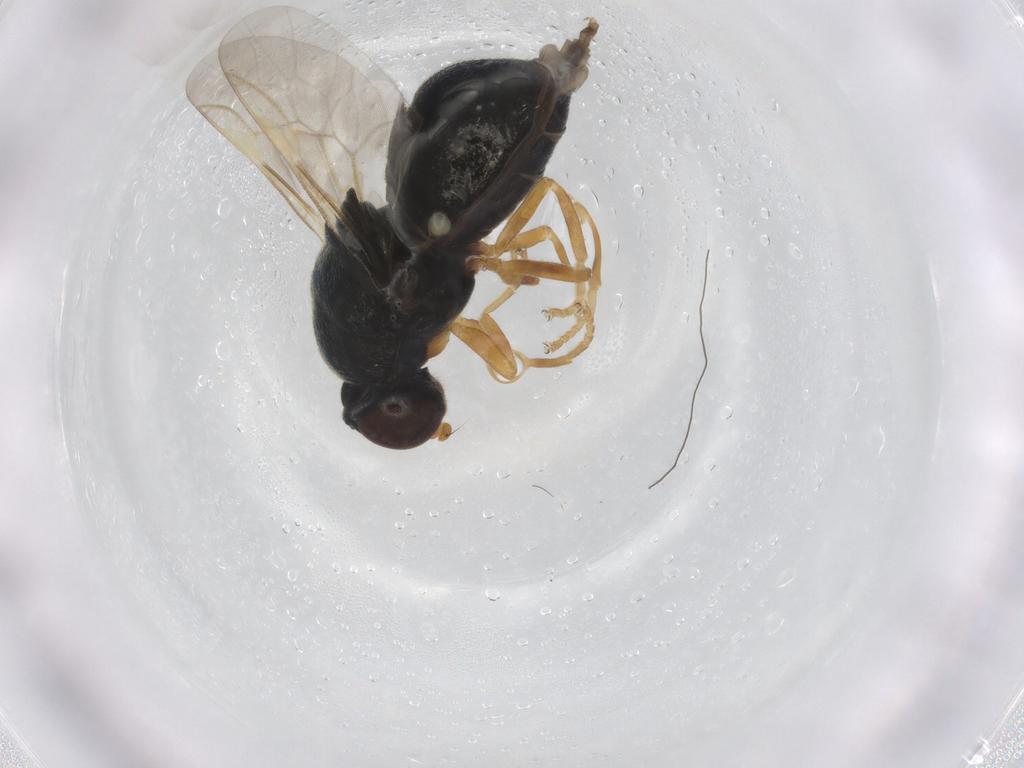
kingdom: Animalia
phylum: Arthropoda
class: Insecta
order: Diptera
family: Stratiomyidae
